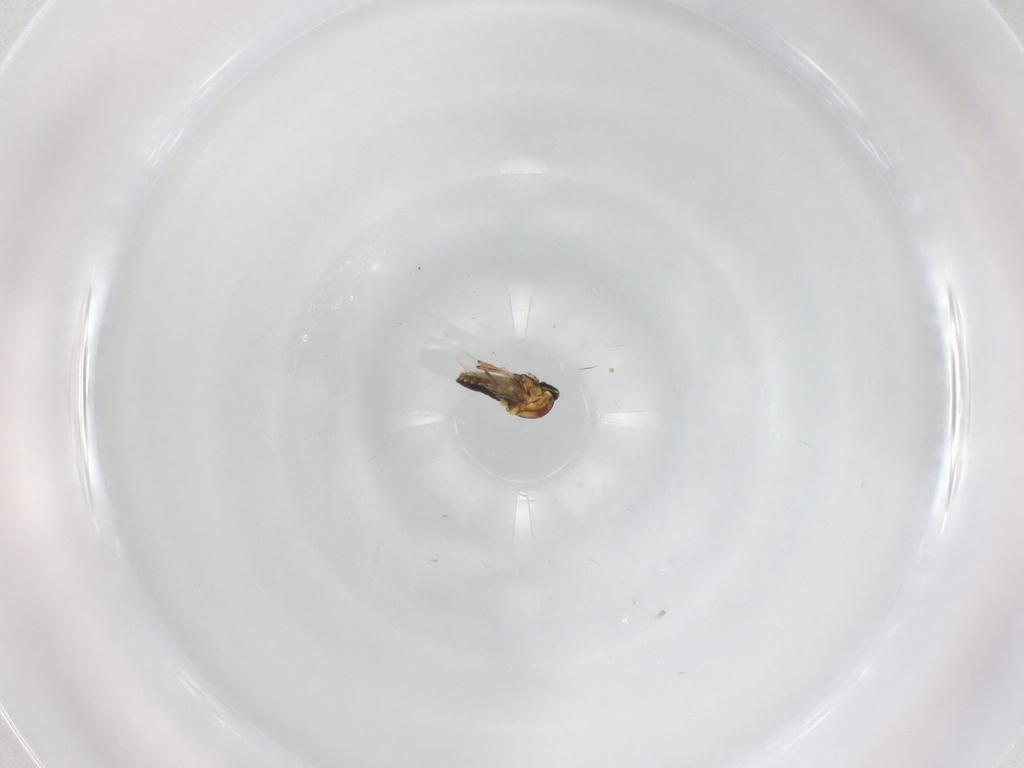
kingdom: Animalia
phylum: Arthropoda
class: Insecta
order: Diptera
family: Ceratopogonidae
